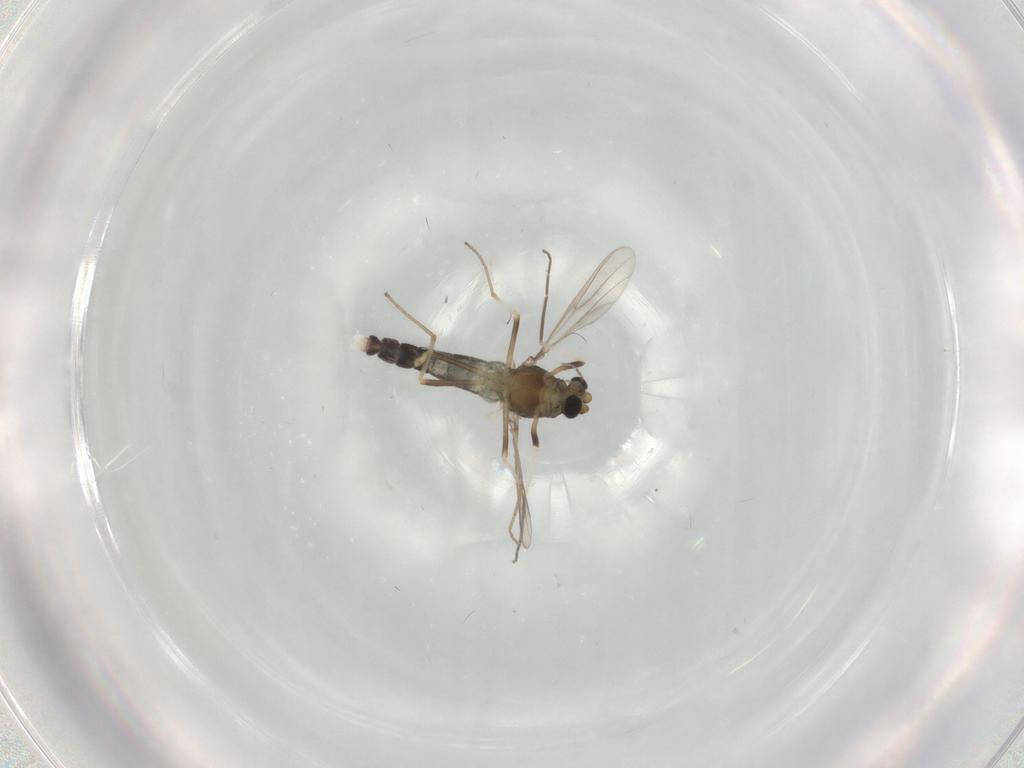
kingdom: Animalia
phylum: Arthropoda
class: Insecta
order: Diptera
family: Chironomidae
